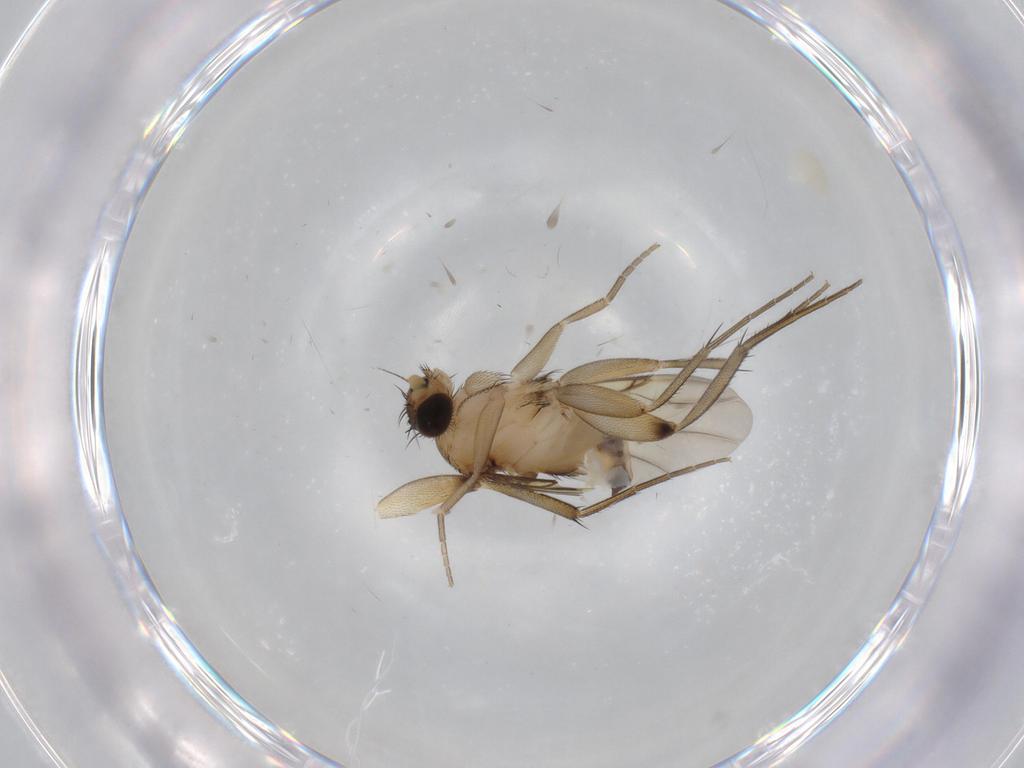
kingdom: Animalia
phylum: Arthropoda
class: Insecta
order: Diptera
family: Phoridae
